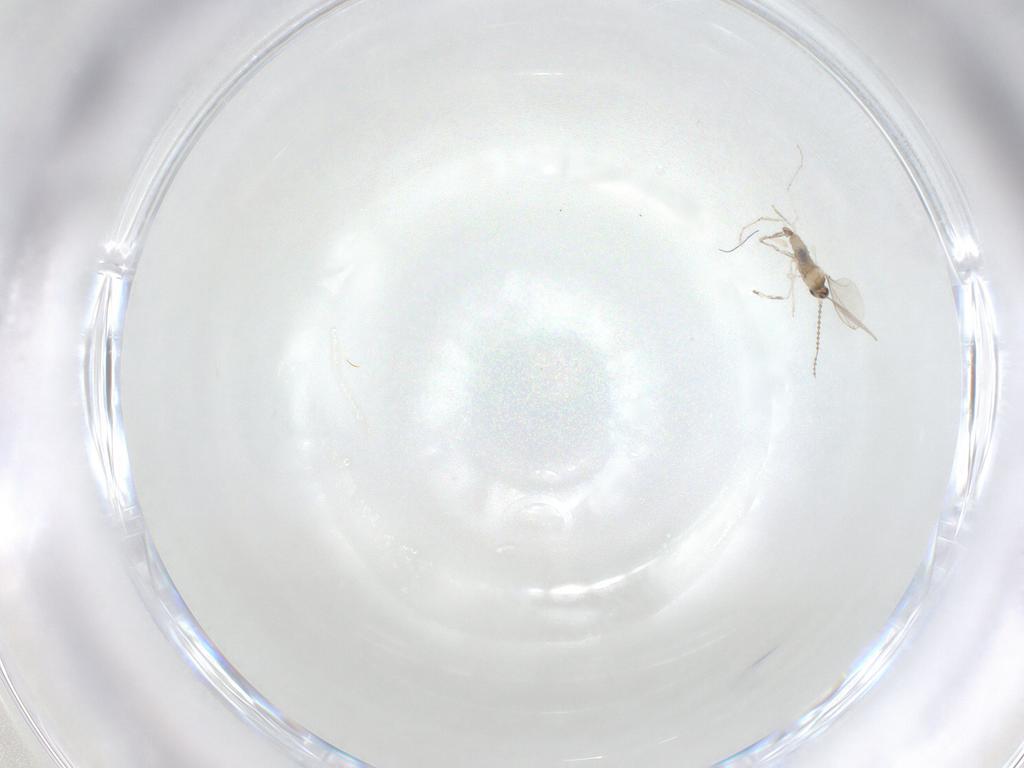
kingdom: Animalia
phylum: Arthropoda
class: Insecta
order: Diptera
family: Cecidomyiidae
